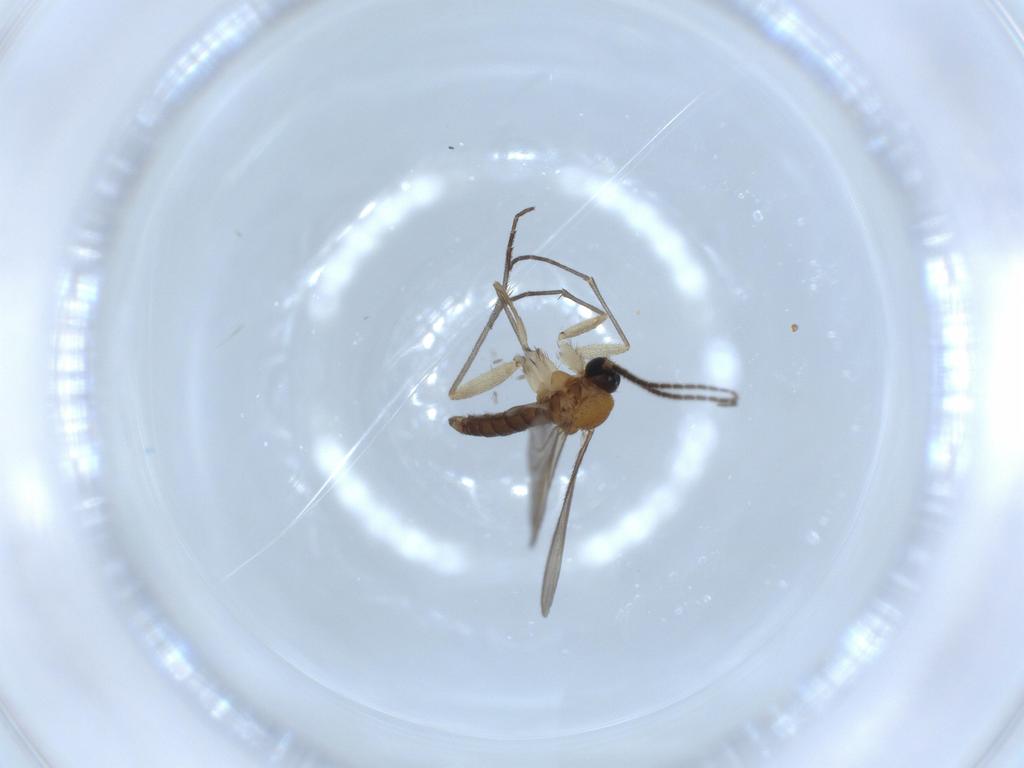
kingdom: Animalia
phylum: Arthropoda
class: Insecta
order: Diptera
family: Sciaridae
